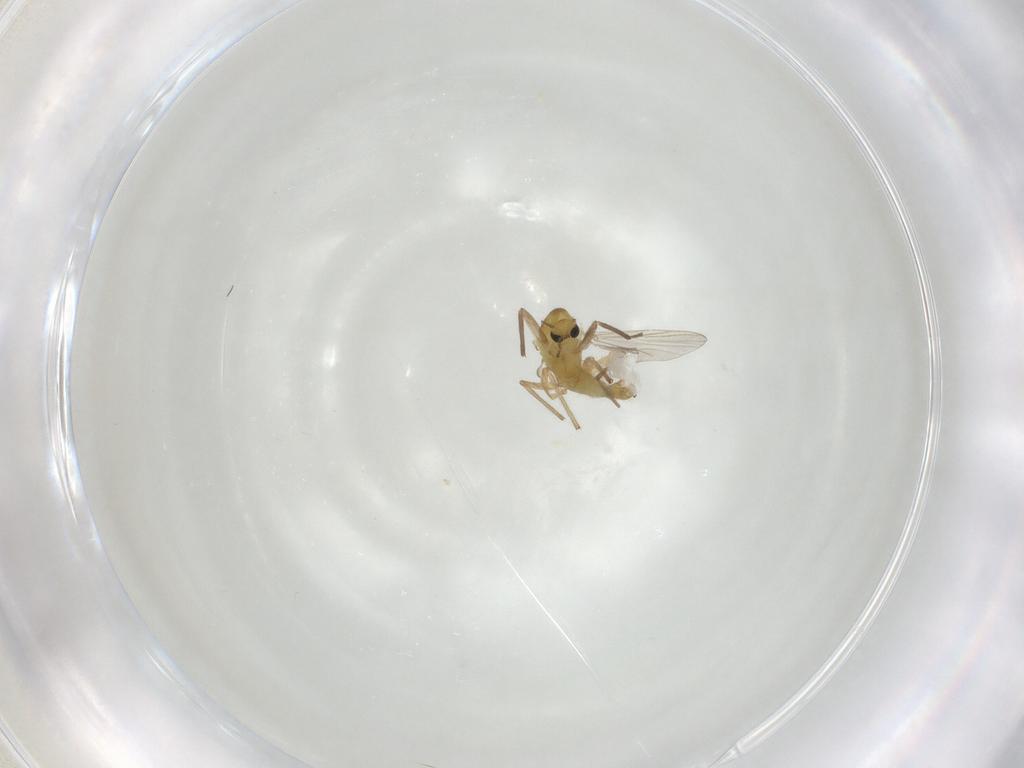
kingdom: Animalia
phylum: Arthropoda
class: Insecta
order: Diptera
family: Chironomidae
